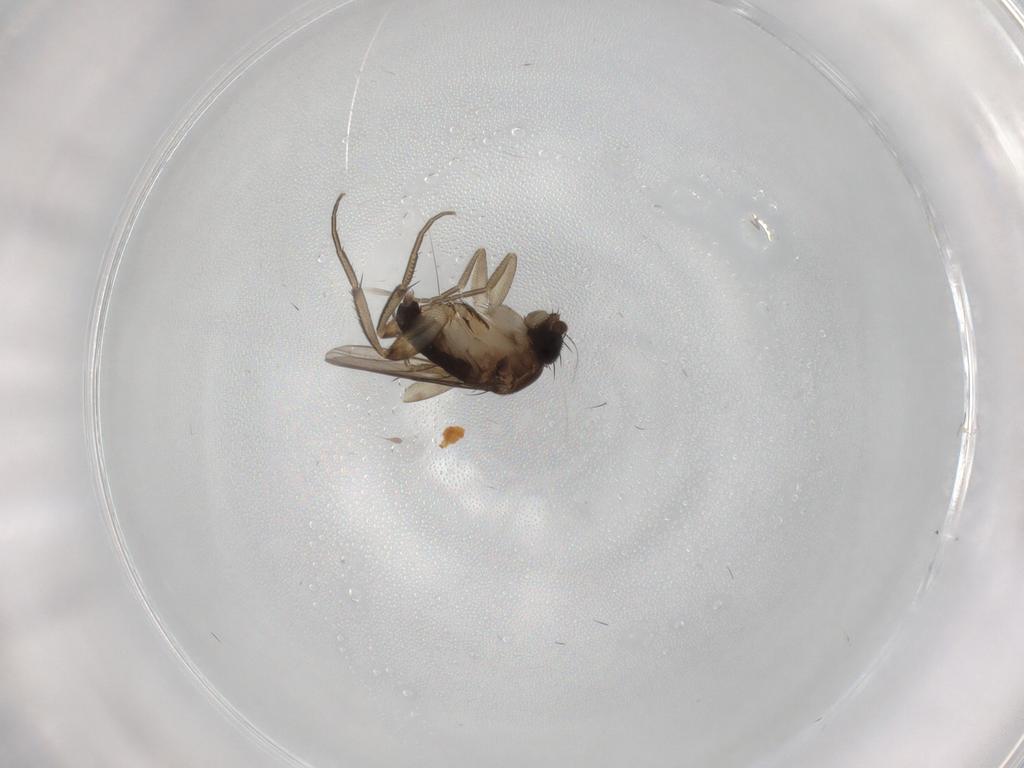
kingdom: Animalia
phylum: Arthropoda
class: Insecta
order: Diptera
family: Phoridae
